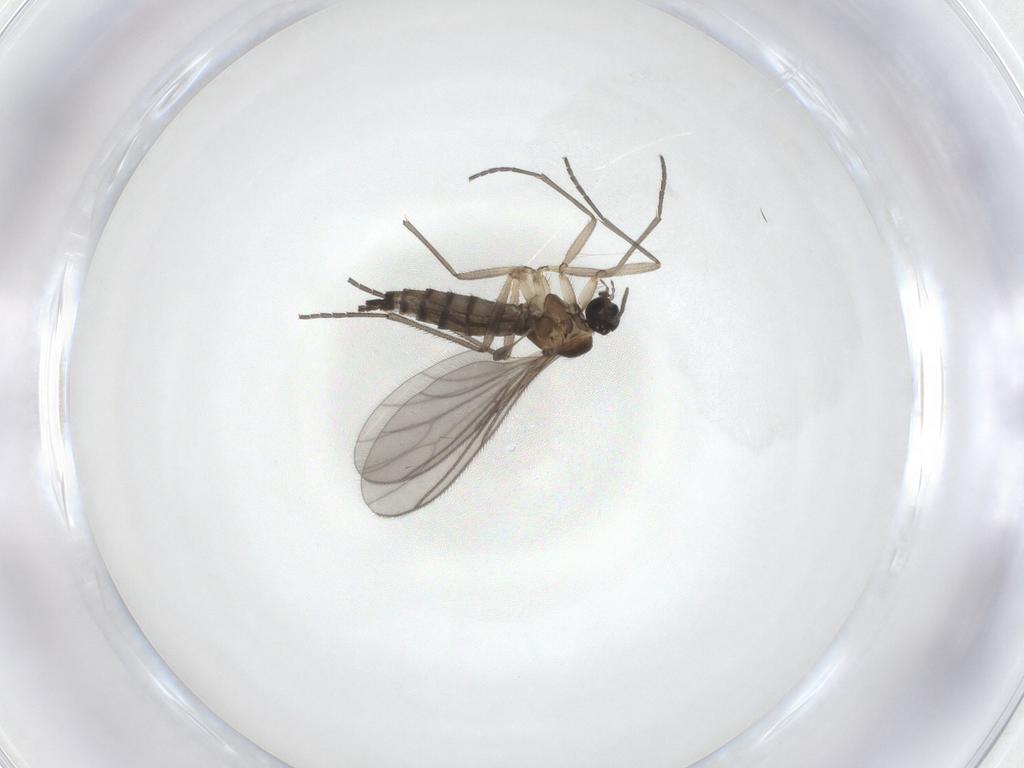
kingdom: Animalia
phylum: Arthropoda
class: Insecta
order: Diptera
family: Sciaridae
